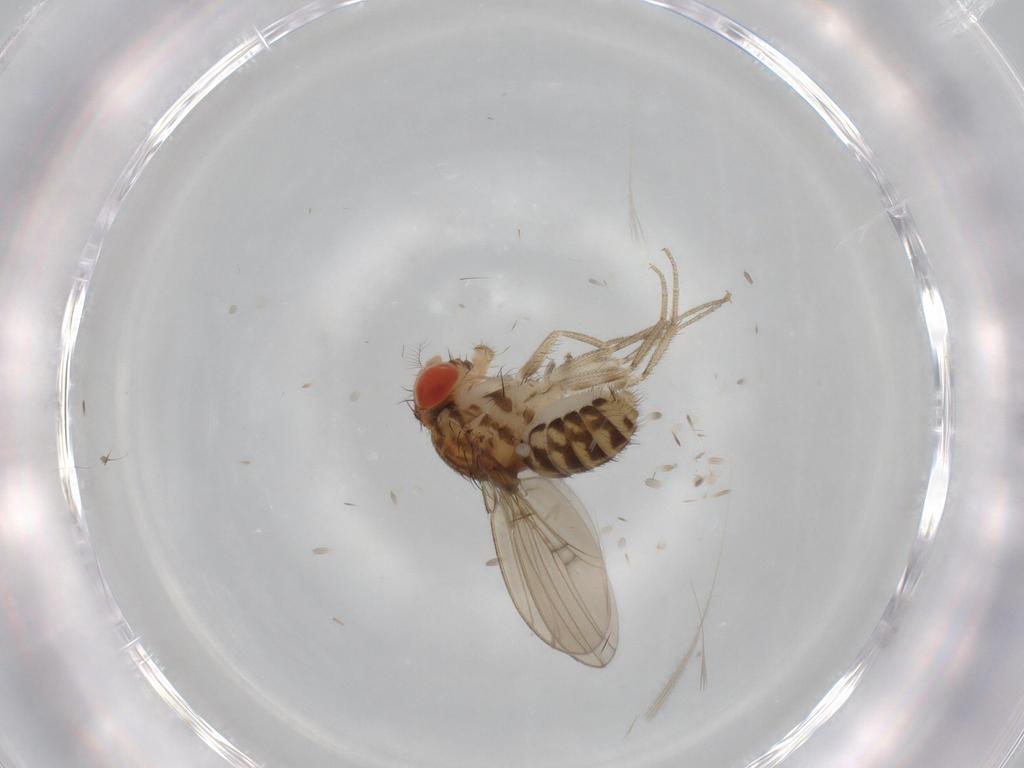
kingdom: Animalia
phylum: Arthropoda
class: Insecta
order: Diptera
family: Drosophilidae
